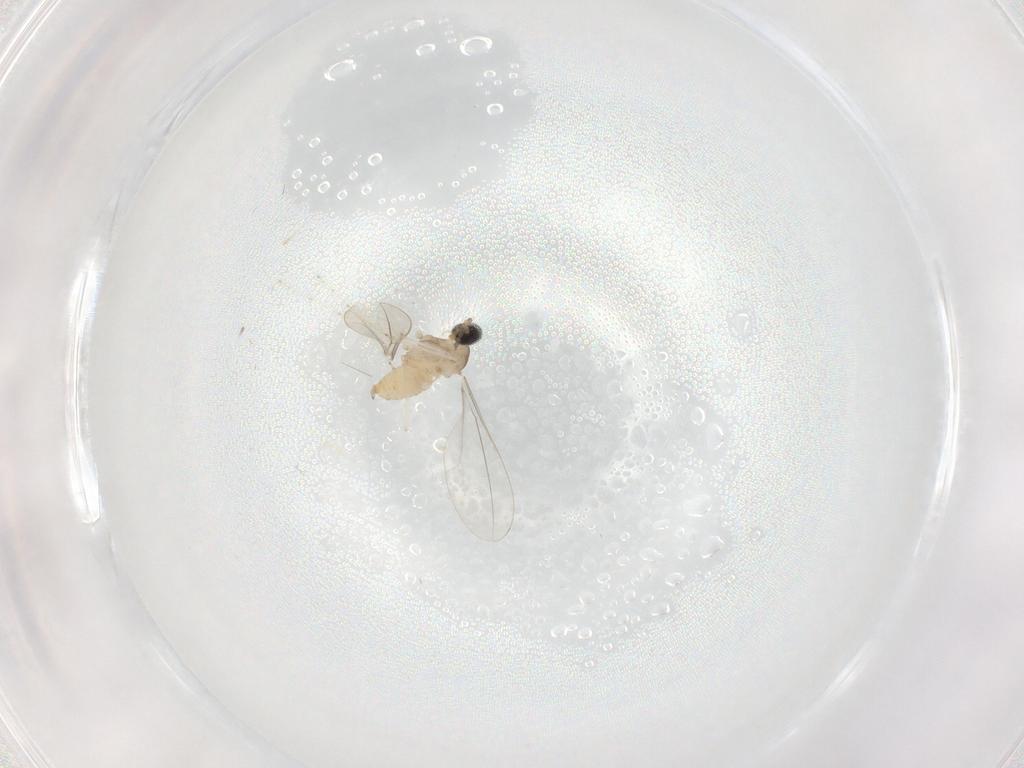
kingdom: Animalia
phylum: Arthropoda
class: Insecta
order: Diptera
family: Cecidomyiidae
